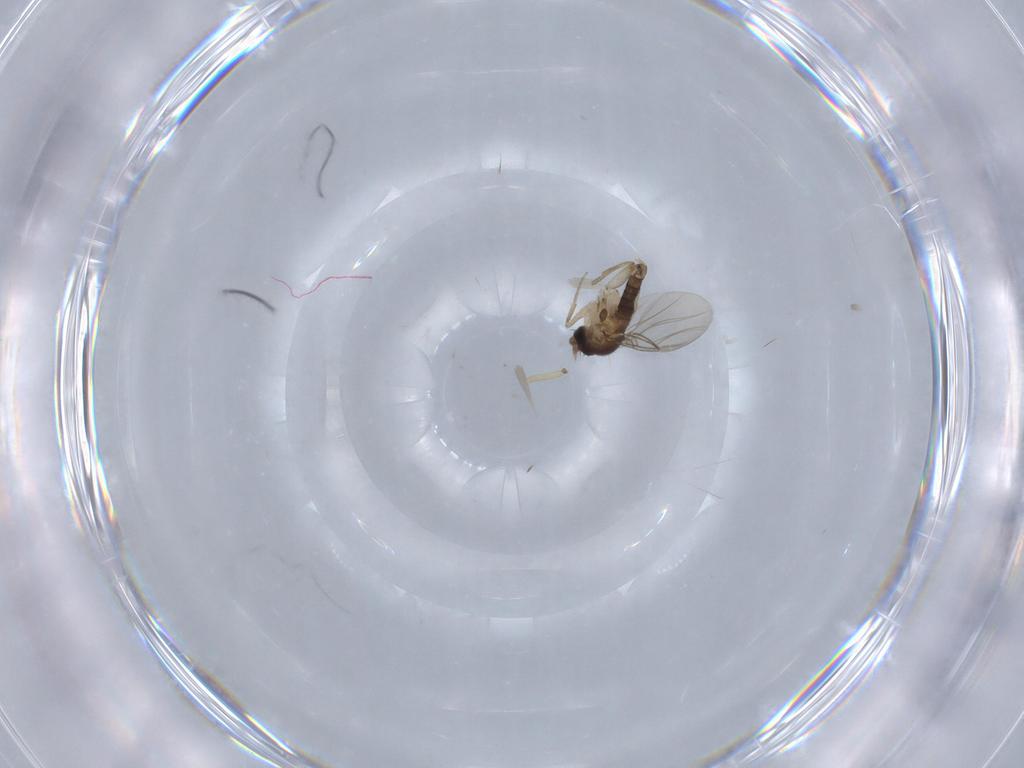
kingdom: Animalia
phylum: Arthropoda
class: Insecta
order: Diptera
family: Phoridae
